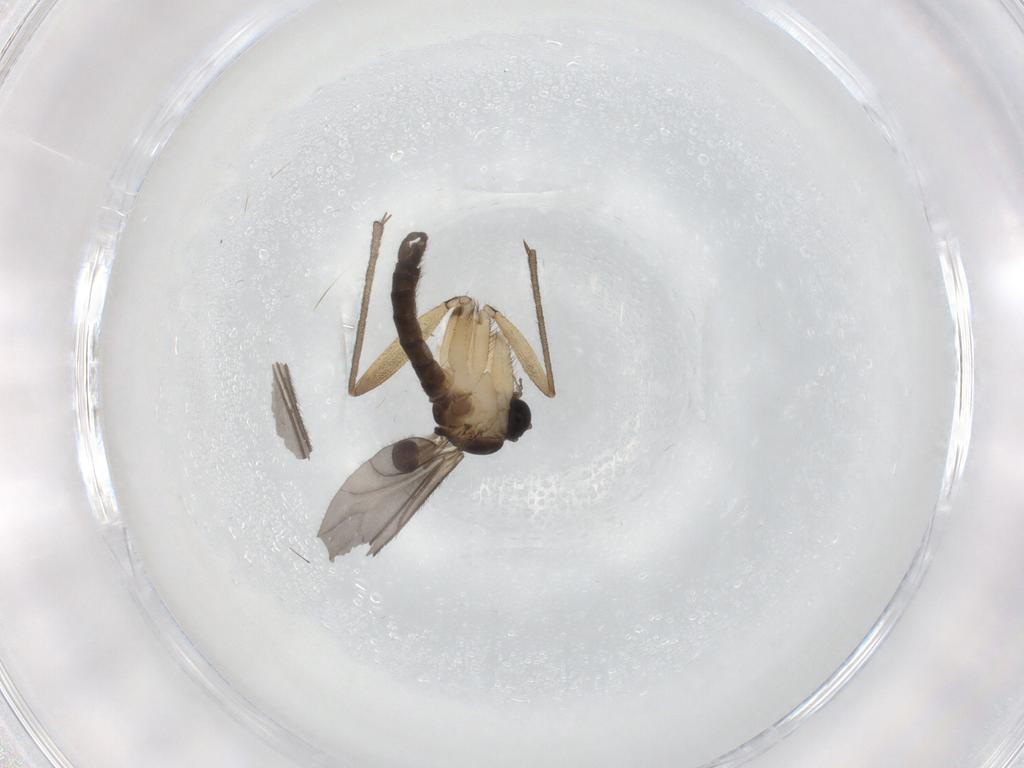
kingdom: Animalia
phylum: Arthropoda
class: Insecta
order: Diptera
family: Sciaridae
